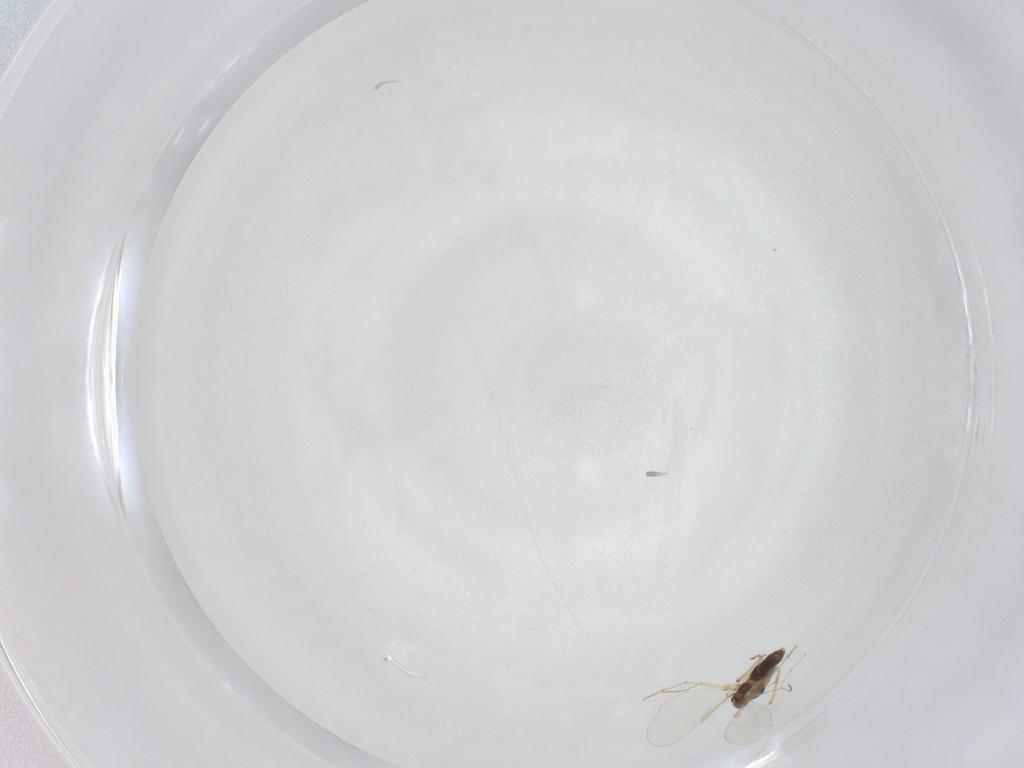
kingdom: Animalia
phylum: Arthropoda
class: Insecta
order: Diptera
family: Chironomidae
